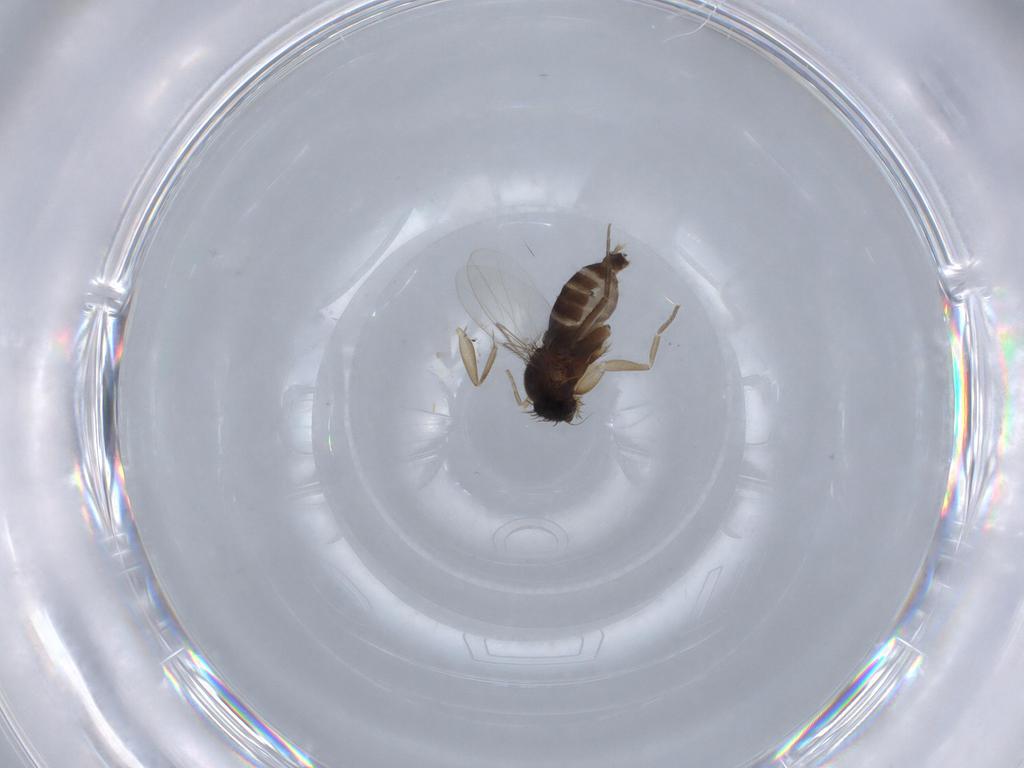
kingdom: Animalia
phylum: Arthropoda
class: Insecta
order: Diptera
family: Phoridae
